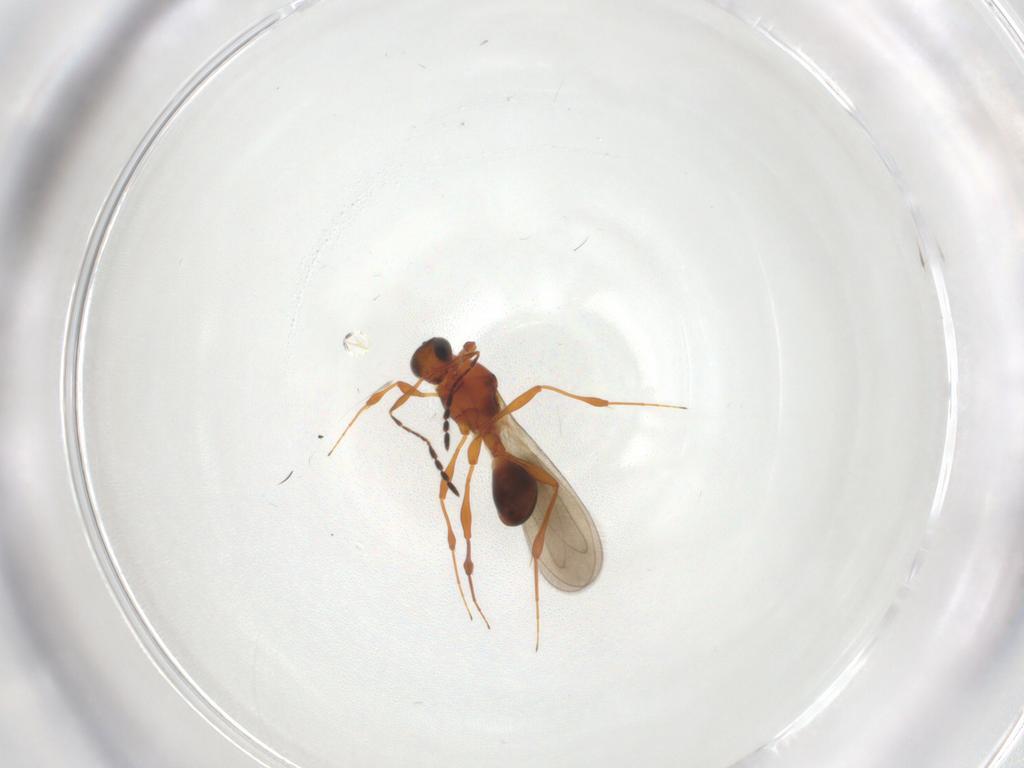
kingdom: Animalia
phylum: Arthropoda
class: Insecta
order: Hymenoptera
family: Platygastridae
